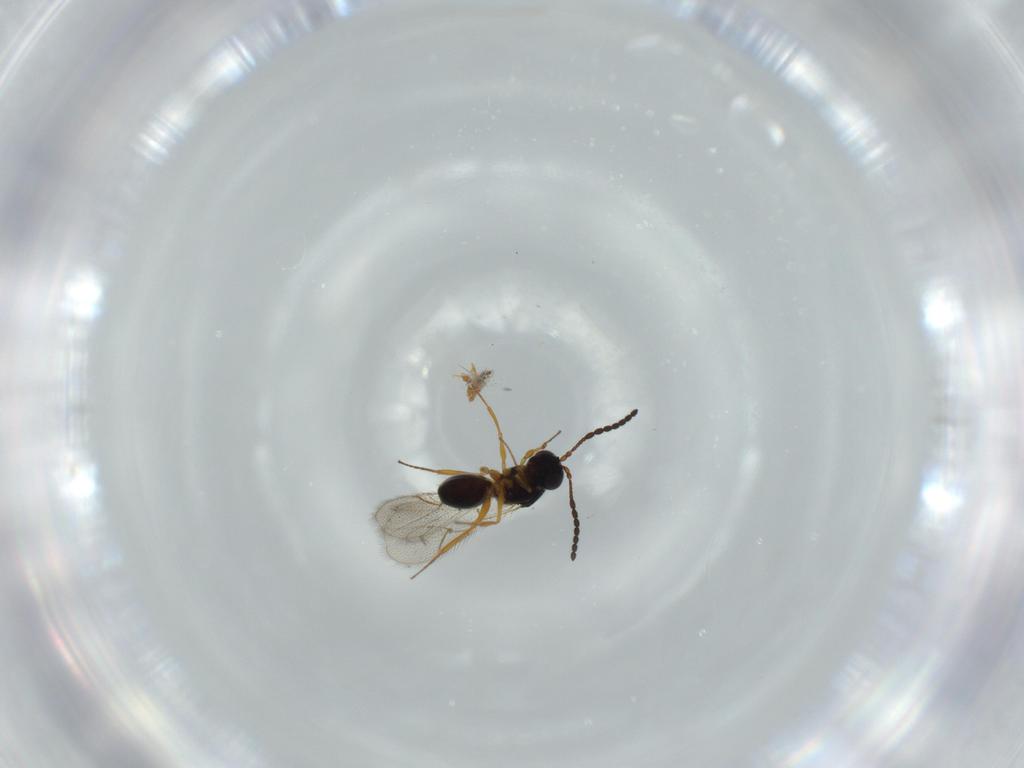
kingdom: Animalia
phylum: Arthropoda
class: Insecta
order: Hymenoptera
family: Figitidae
